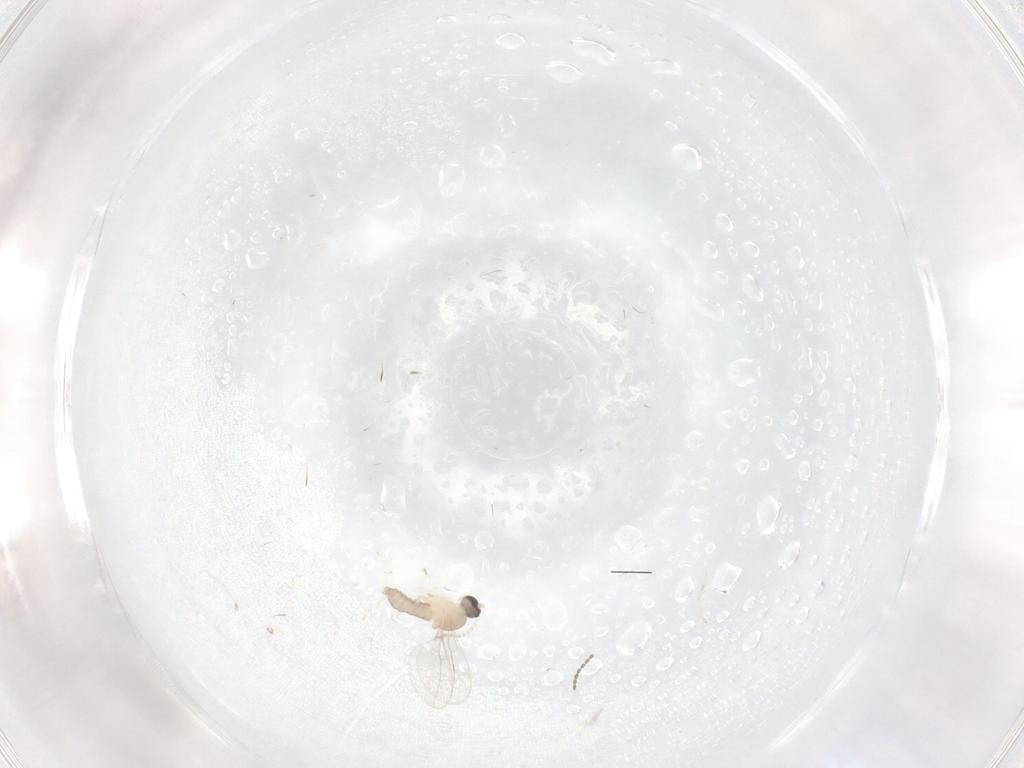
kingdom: Animalia
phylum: Arthropoda
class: Insecta
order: Diptera
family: Cecidomyiidae
